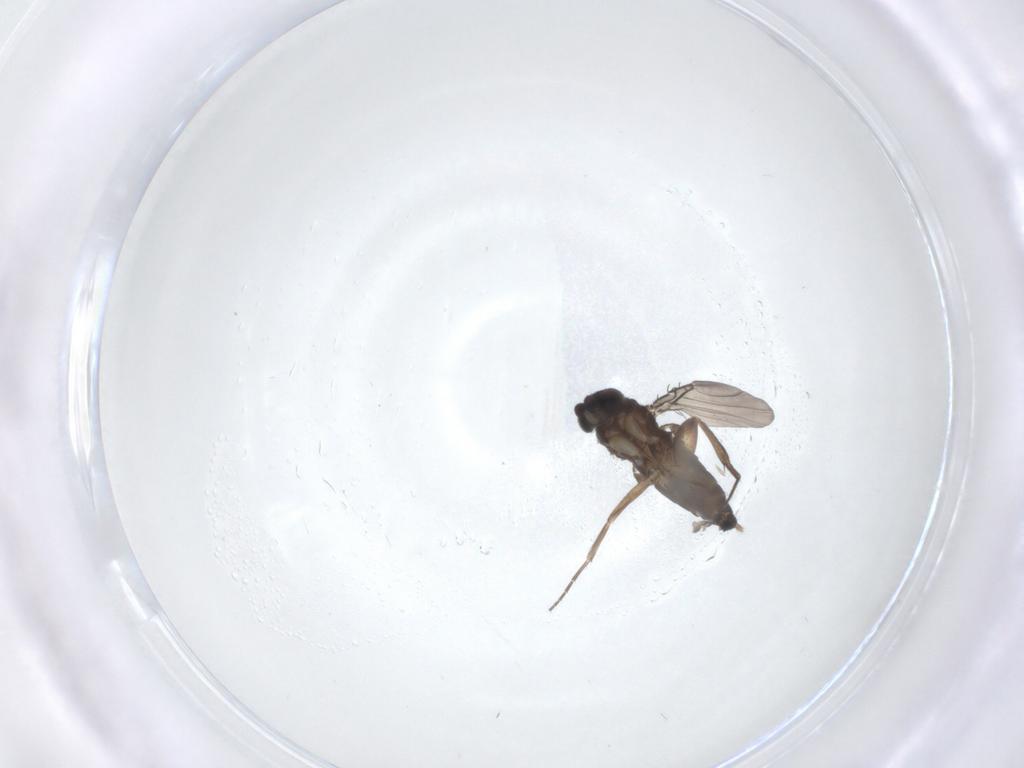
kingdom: Animalia
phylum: Arthropoda
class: Insecta
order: Diptera
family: Phoridae
